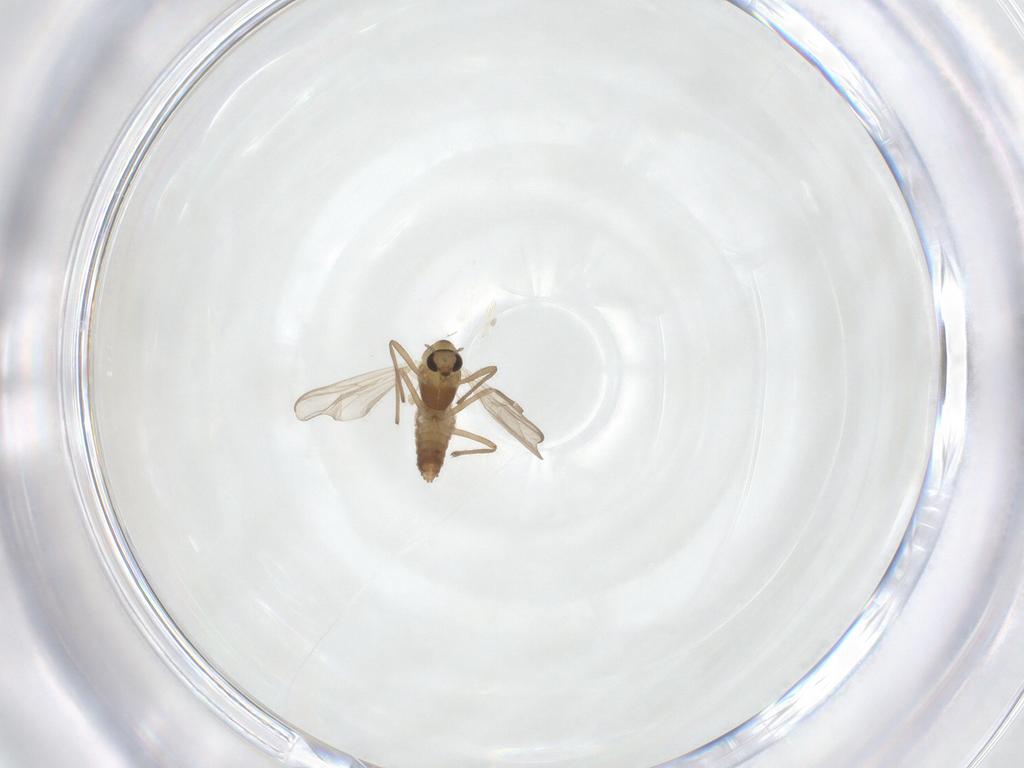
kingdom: Animalia
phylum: Arthropoda
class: Insecta
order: Diptera
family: Chironomidae
